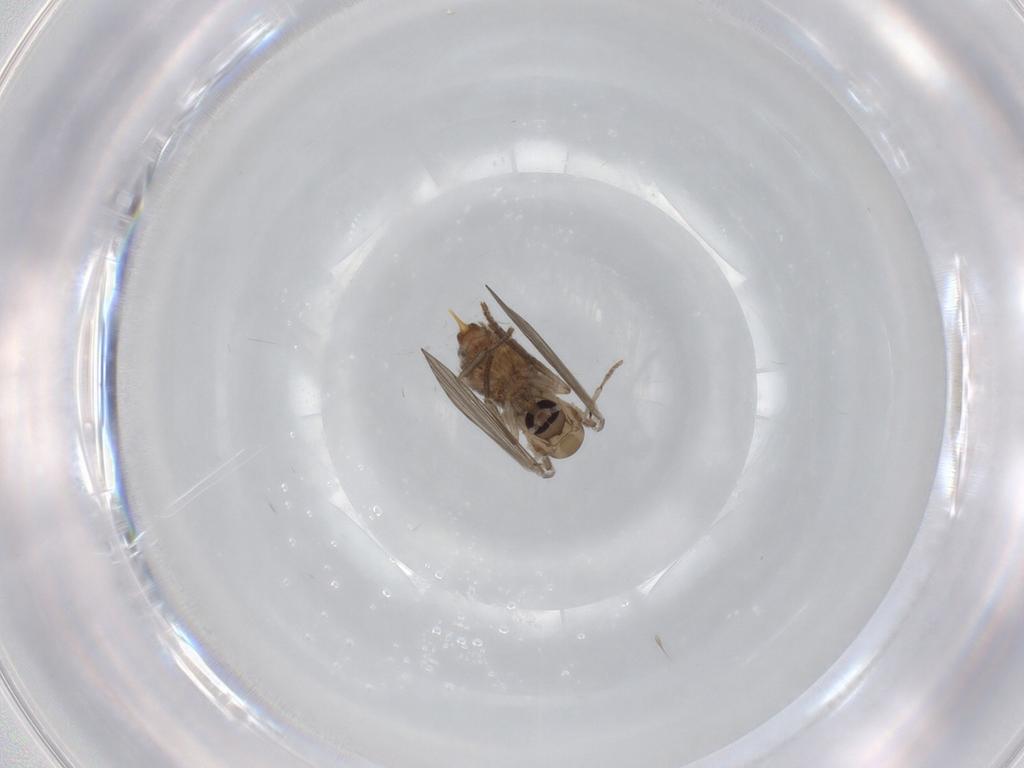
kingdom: Animalia
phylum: Arthropoda
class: Insecta
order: Diptera
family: Psychodidae
